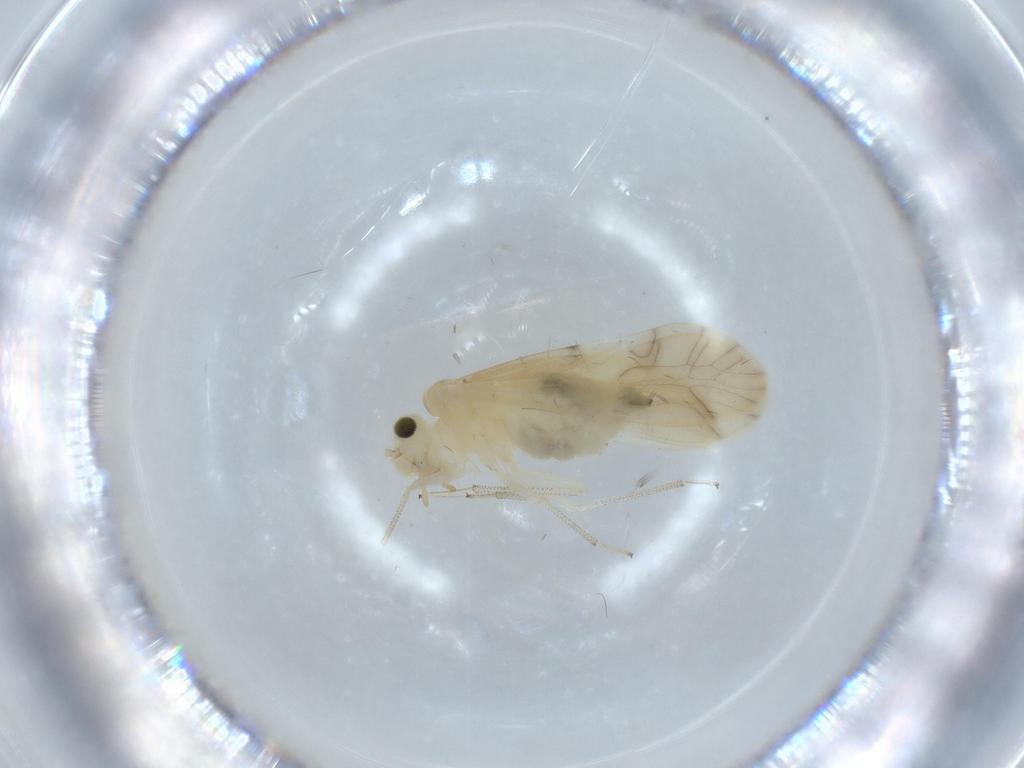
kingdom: Animalia
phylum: Arthropoda
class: Insecta
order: Psocodea
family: Caeciliusidae
